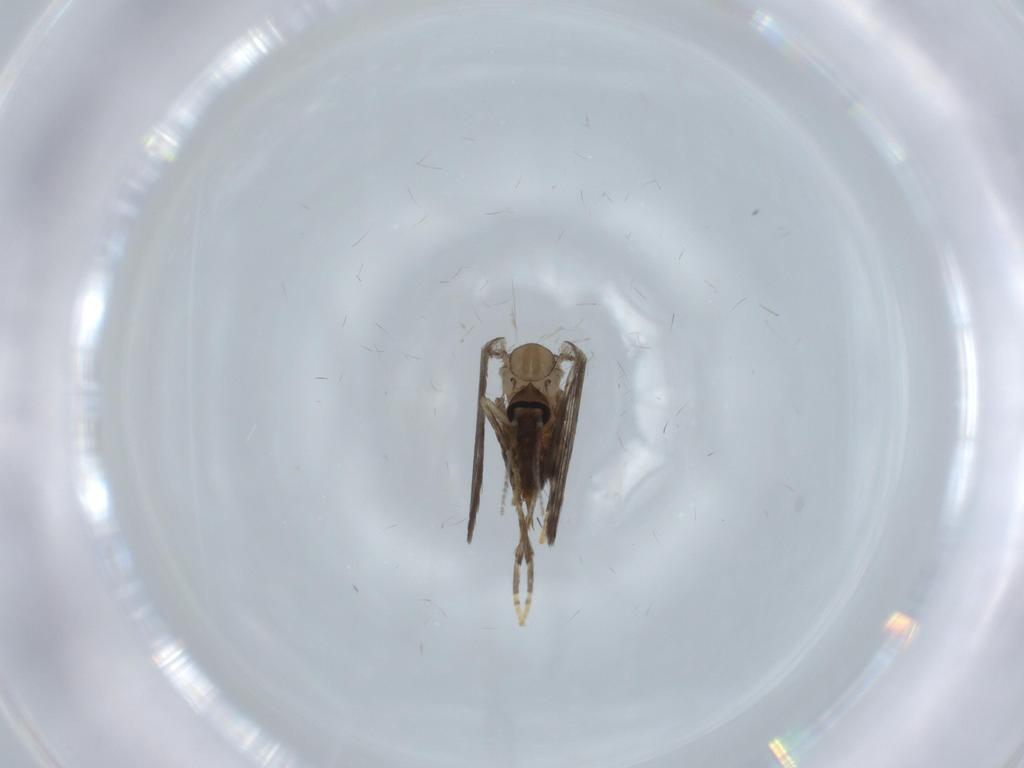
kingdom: Animalia
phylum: Arthropoda
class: Insecta
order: Diptera
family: Psychodidae
